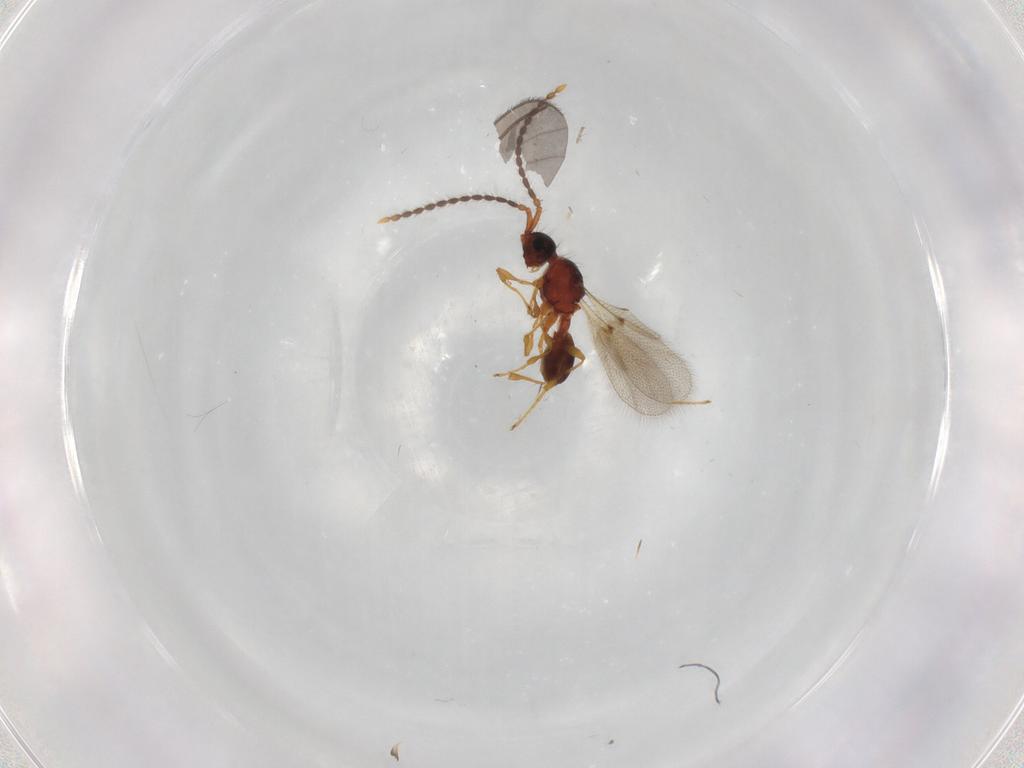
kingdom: Animalia
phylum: Arthropoda
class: Insecta
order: Hymenoptera
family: Diapriidae
